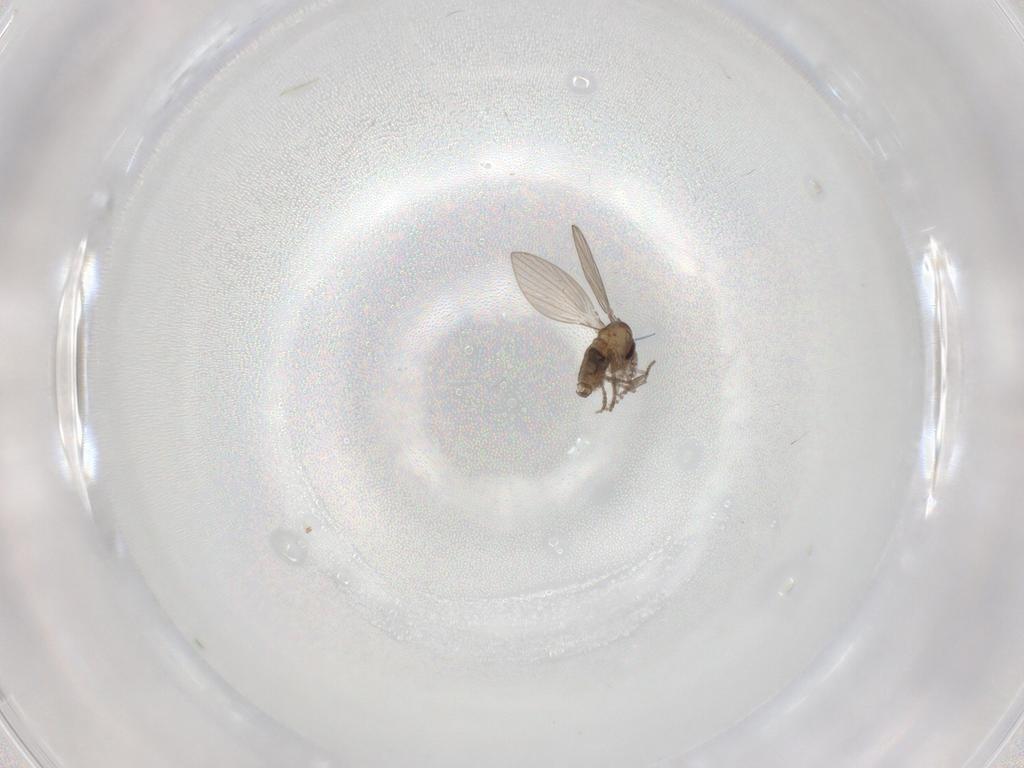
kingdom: Animalia
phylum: Arthropoda
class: Insecta
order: Diptera
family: Psychodidae
